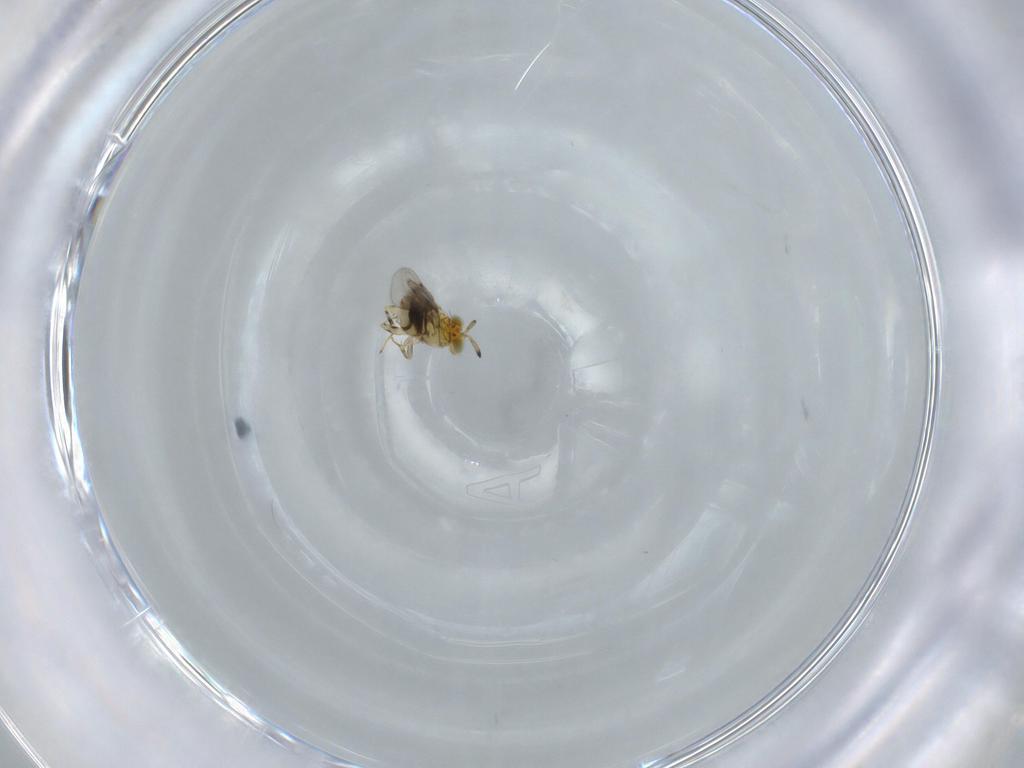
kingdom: Animalia
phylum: Arthropoda
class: Insecta
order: Hymenoptera
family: Aphelinidae
